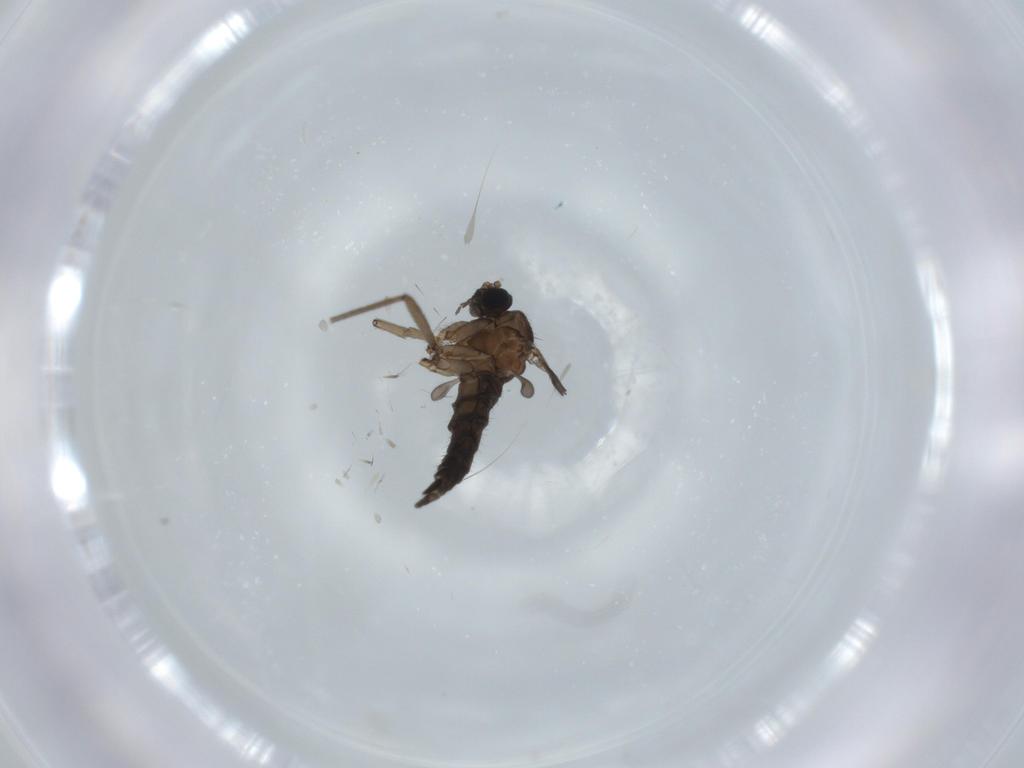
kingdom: Animalia
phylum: Arthropoda
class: Insecta
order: Diptera
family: Sciaridae
